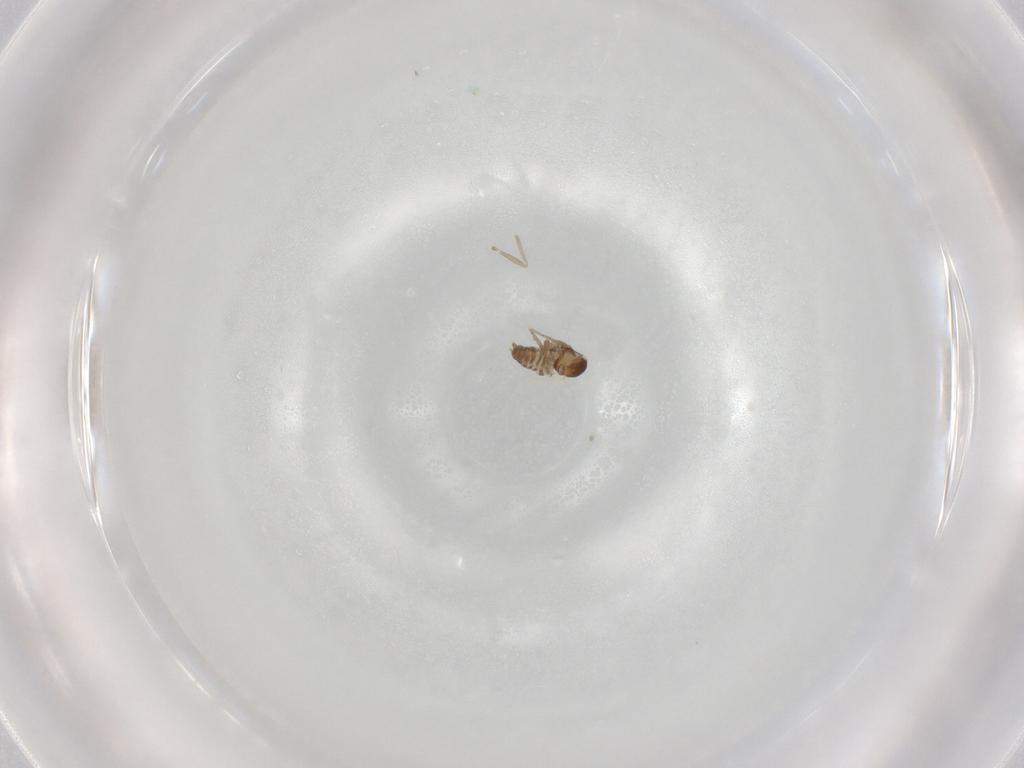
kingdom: Animalia
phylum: Arthropoda
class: Insecta
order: Diptera
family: Cecidomyiidae
